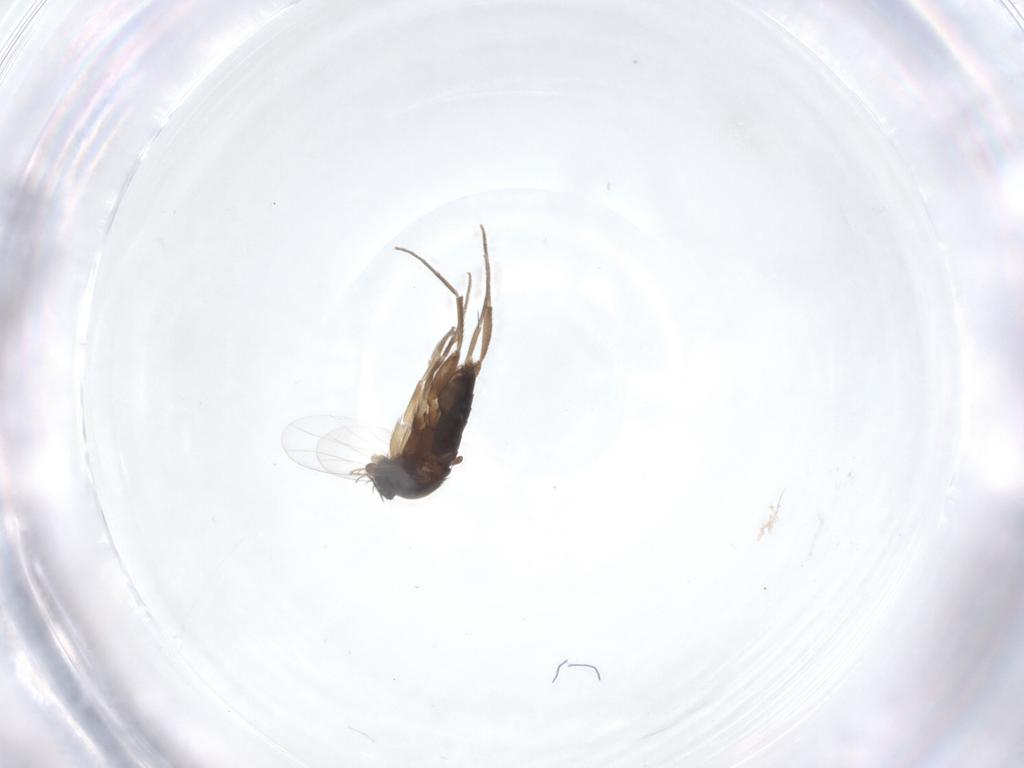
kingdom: Animalia
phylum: Arthropoda
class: Insecta
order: Diptera
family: Phoridae
